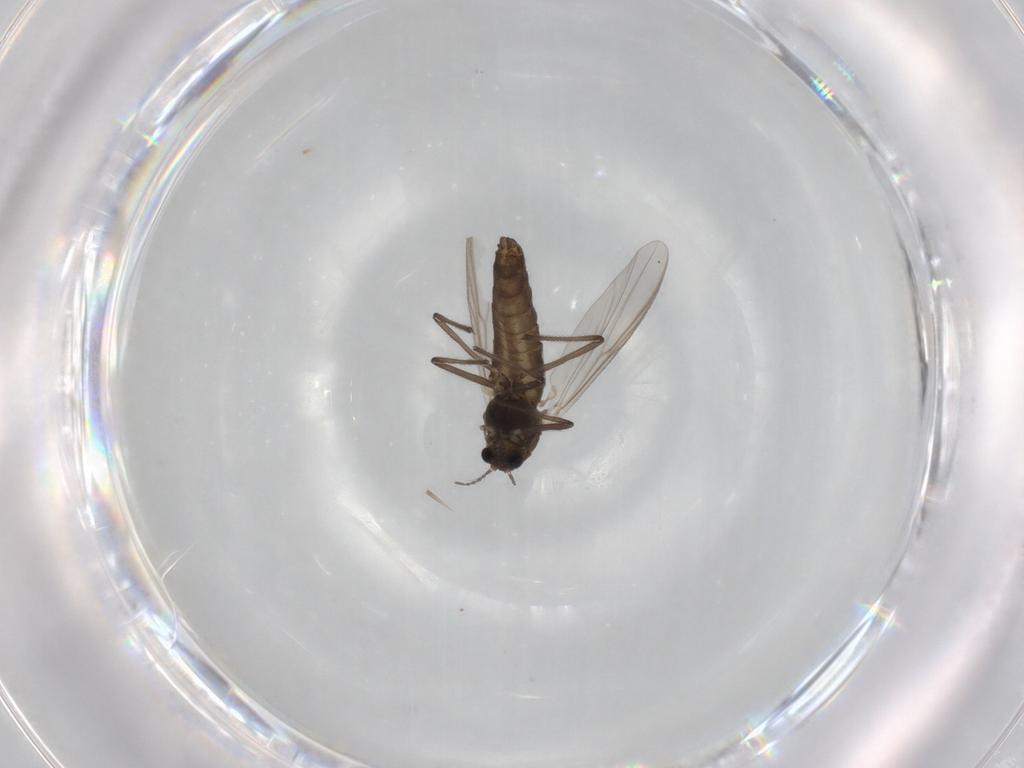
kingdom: Animalia
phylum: Arthropoda
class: Insecta
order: Diptera
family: Chironomidae
